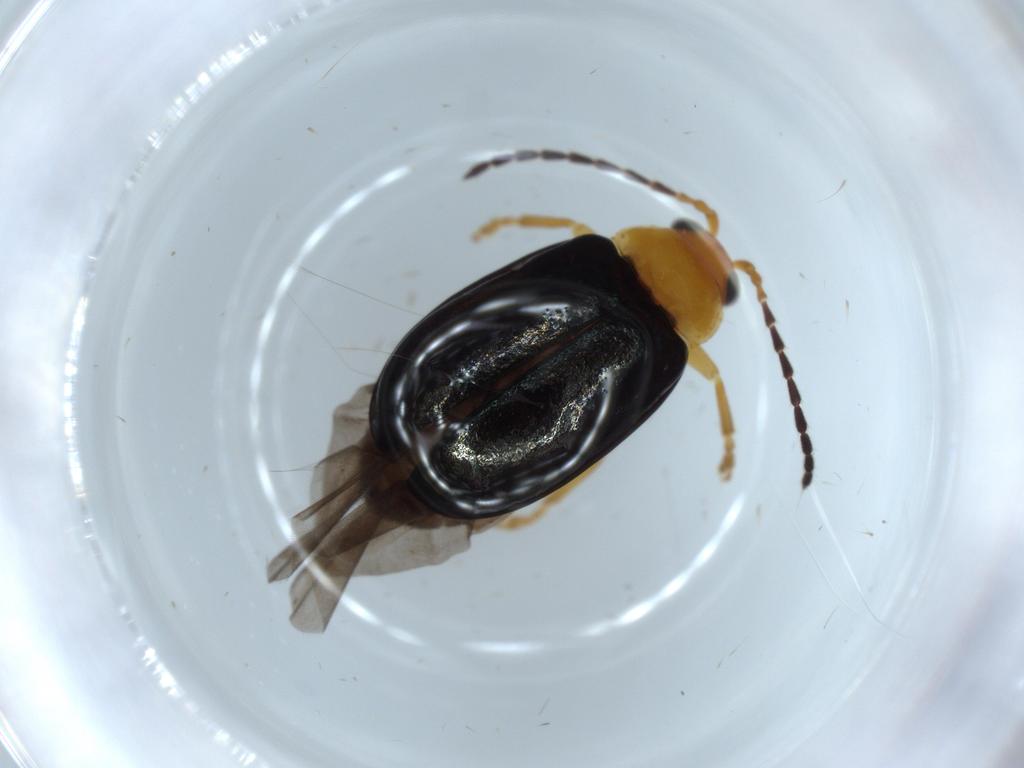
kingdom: Animalia
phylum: Arthropoda
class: Insecta
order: Coleoptera
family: Chrysomelidae
